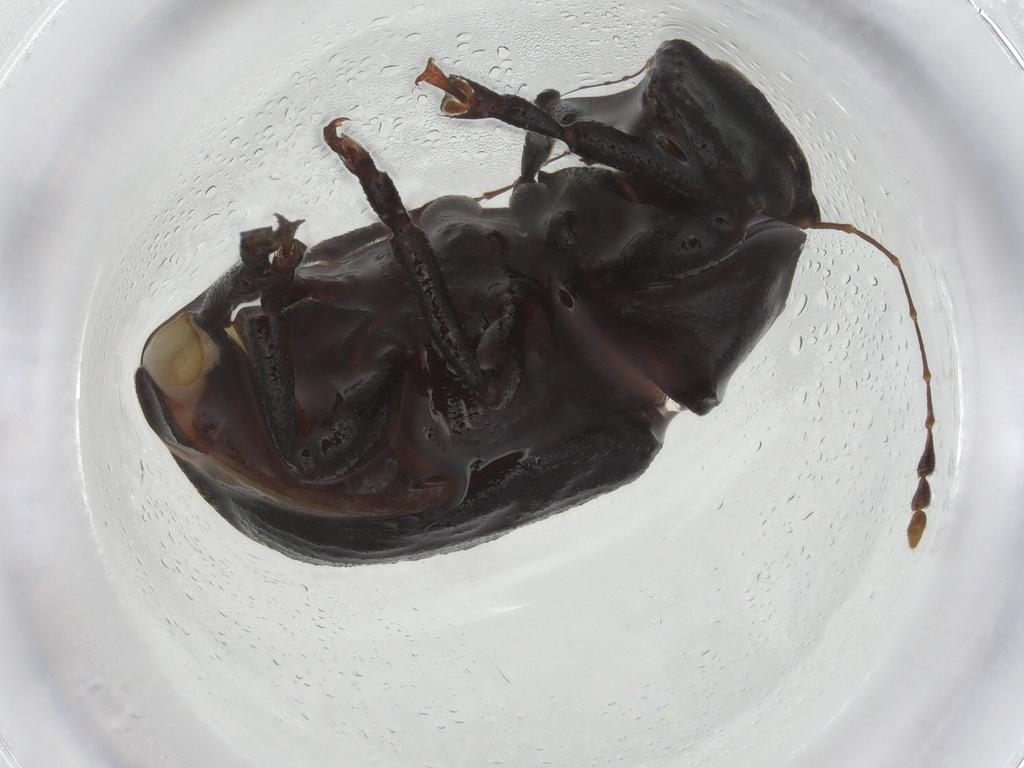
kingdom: Animalia
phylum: Arthropoda
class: Insecta
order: Coleoptera
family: Anthribidae
